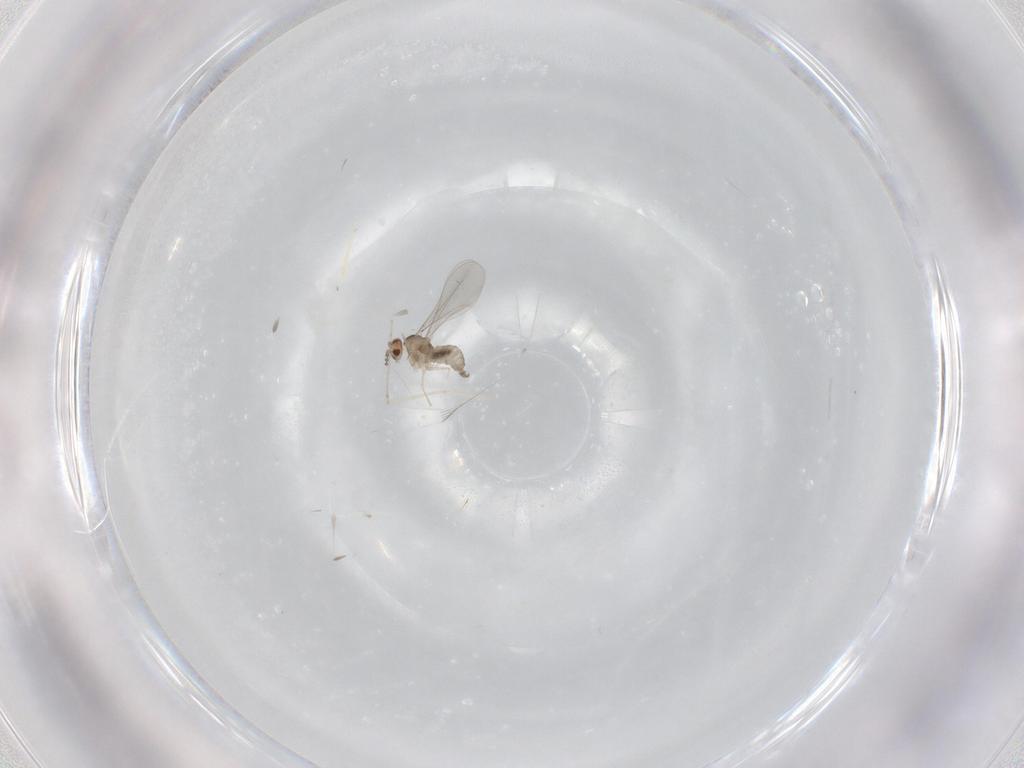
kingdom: Animalia
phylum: Arthropoda
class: Insecta
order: Diptera
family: Cecidomyiidae
